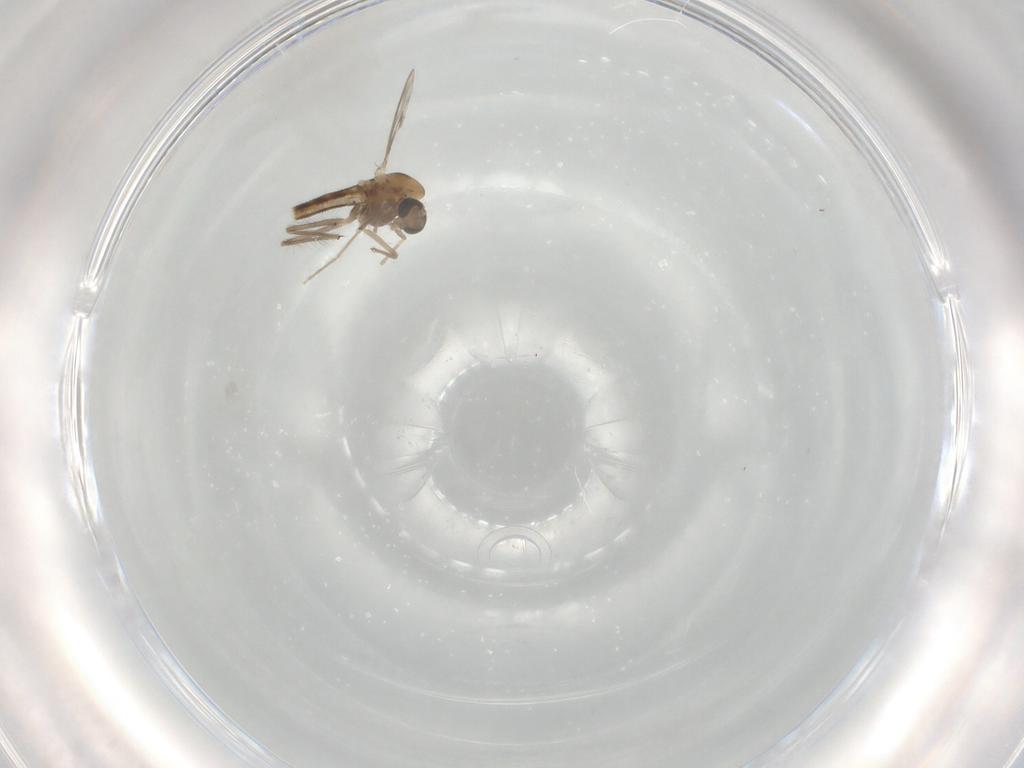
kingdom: Animalia
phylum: Arthropoda
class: Insecta
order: Diptera
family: Chironomidae
